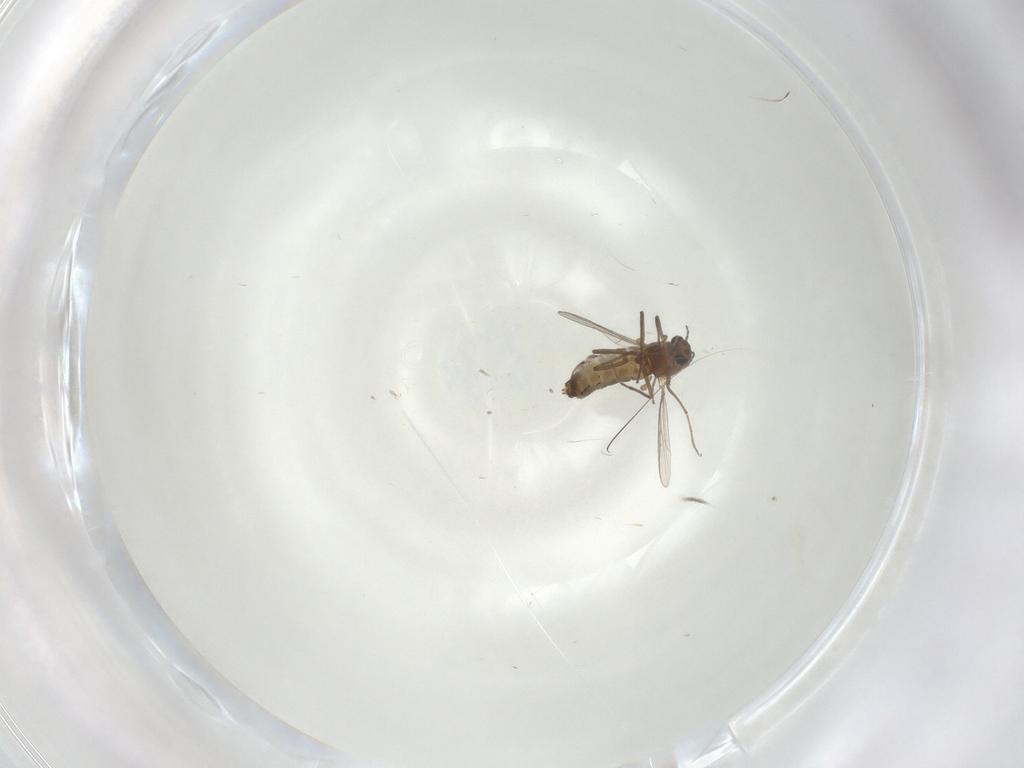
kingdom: Animalia
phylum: Arthropoda
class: Insecta
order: Diptera
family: Chironomidae
